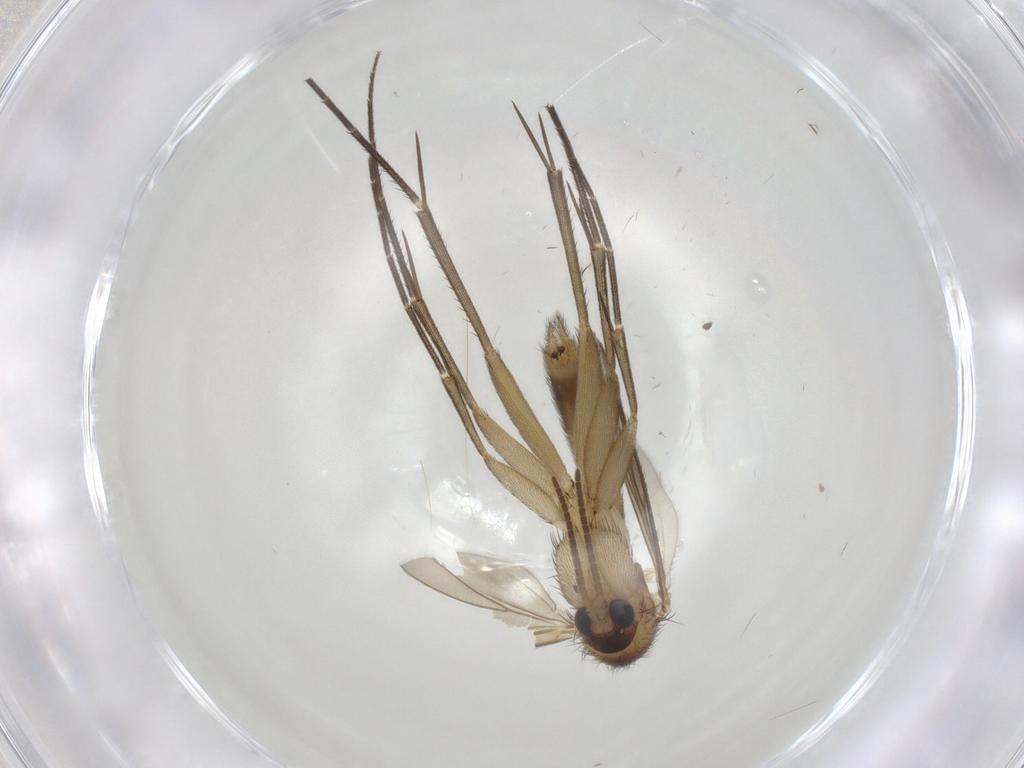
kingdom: Animalia
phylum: Arthropoda
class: Insecta
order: Diptera
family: Mycetophilidae
